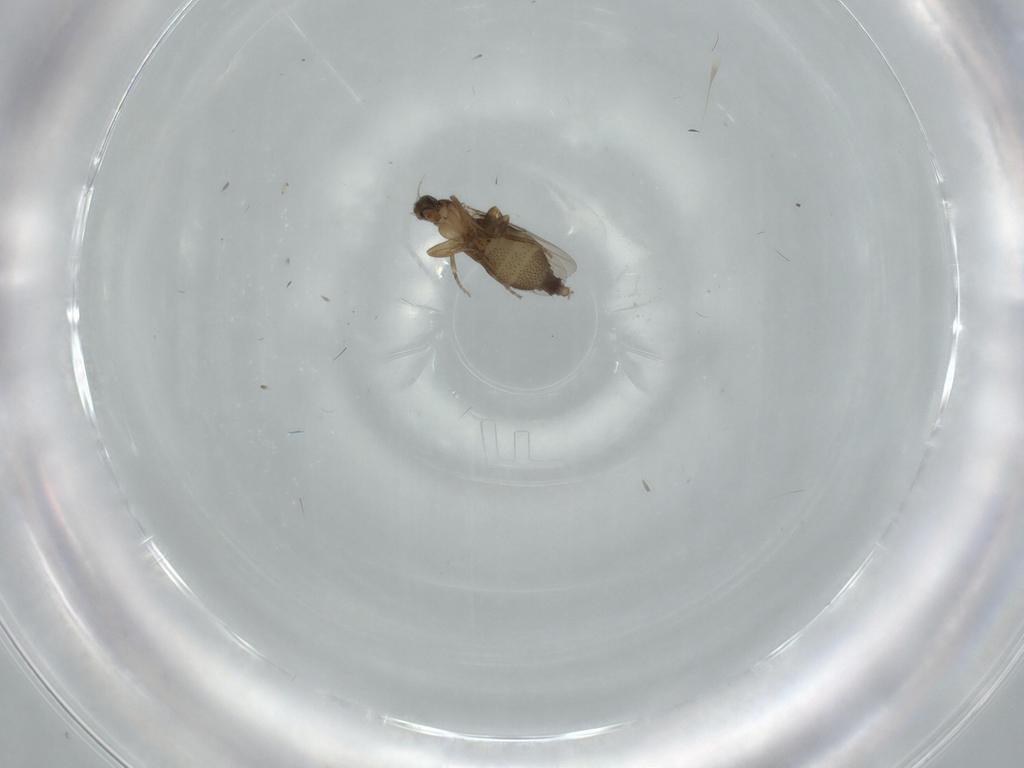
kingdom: Animalia
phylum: Arthropoda
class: Insecta
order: Diptera
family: Phoridae
